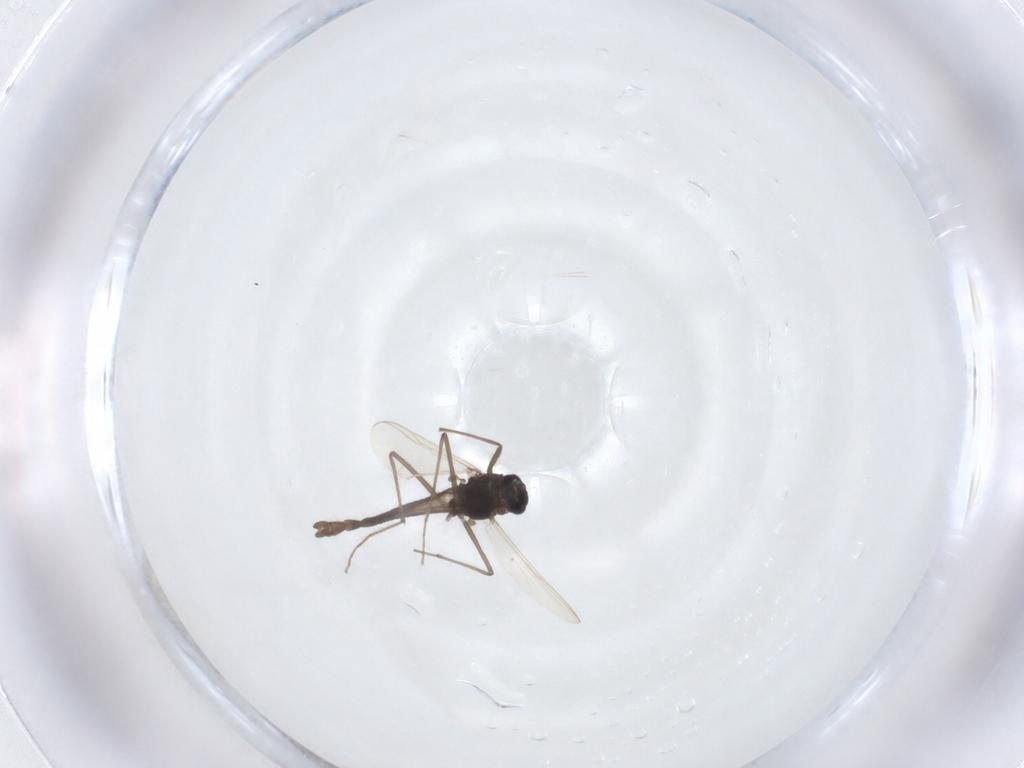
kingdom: Animalia
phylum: Arthropoda
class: Insecta
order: Diptera
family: Chironomidae
